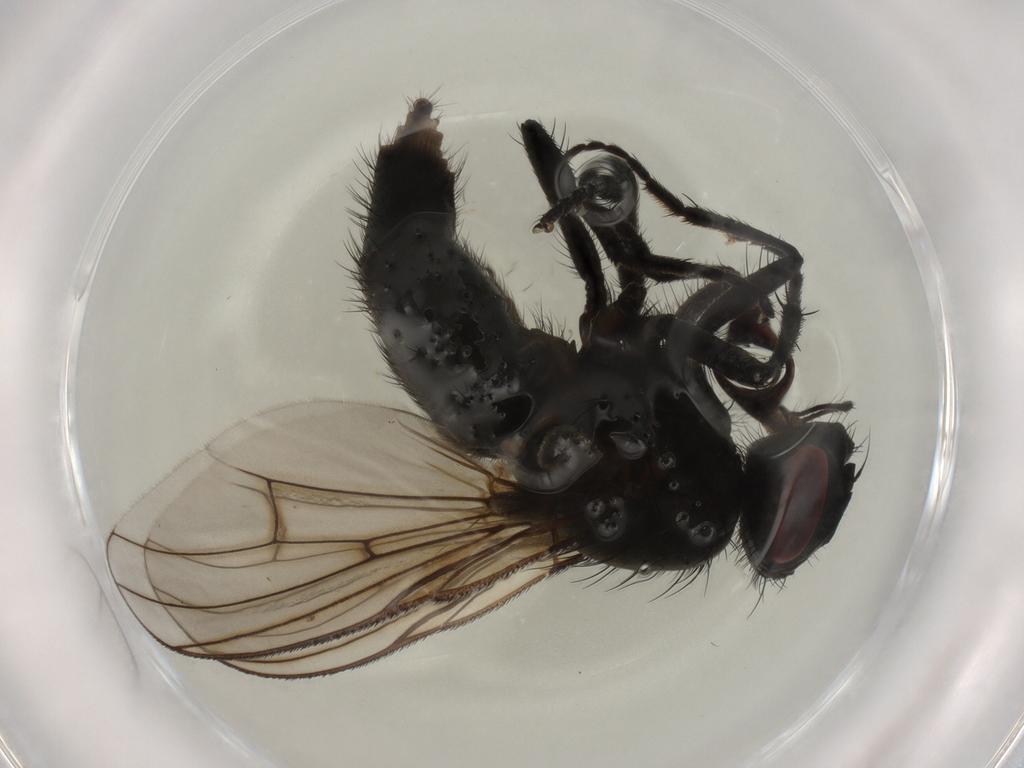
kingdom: Animalia
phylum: Arthropoda
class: Insecta
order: Diptera
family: Muscidae
